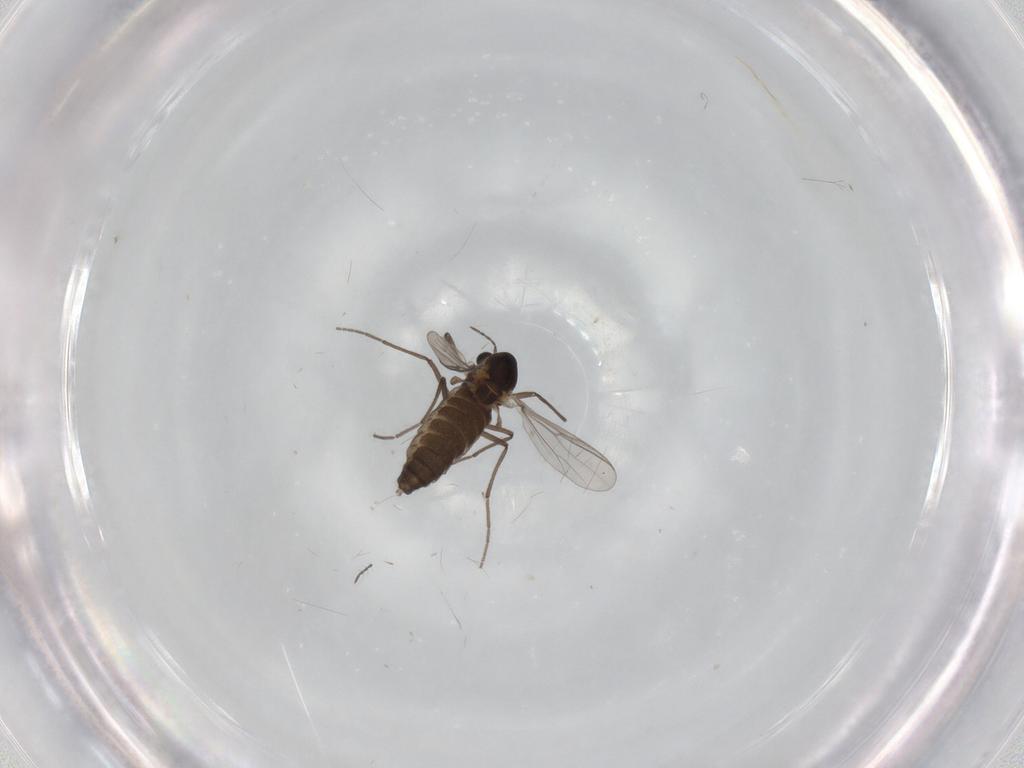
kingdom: Animalia
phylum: Arthropoda
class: Insecta
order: Diptera
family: Chironomidae
